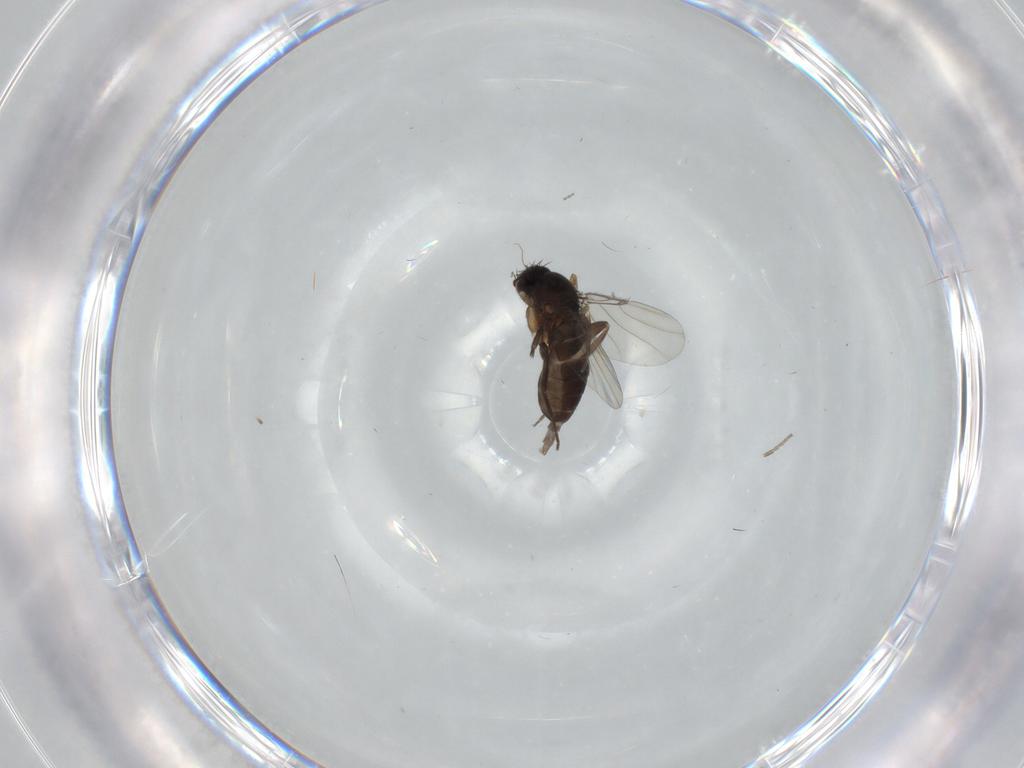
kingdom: Animalia
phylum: Arthropoda
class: Insecta
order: Diptera
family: Phoridae
